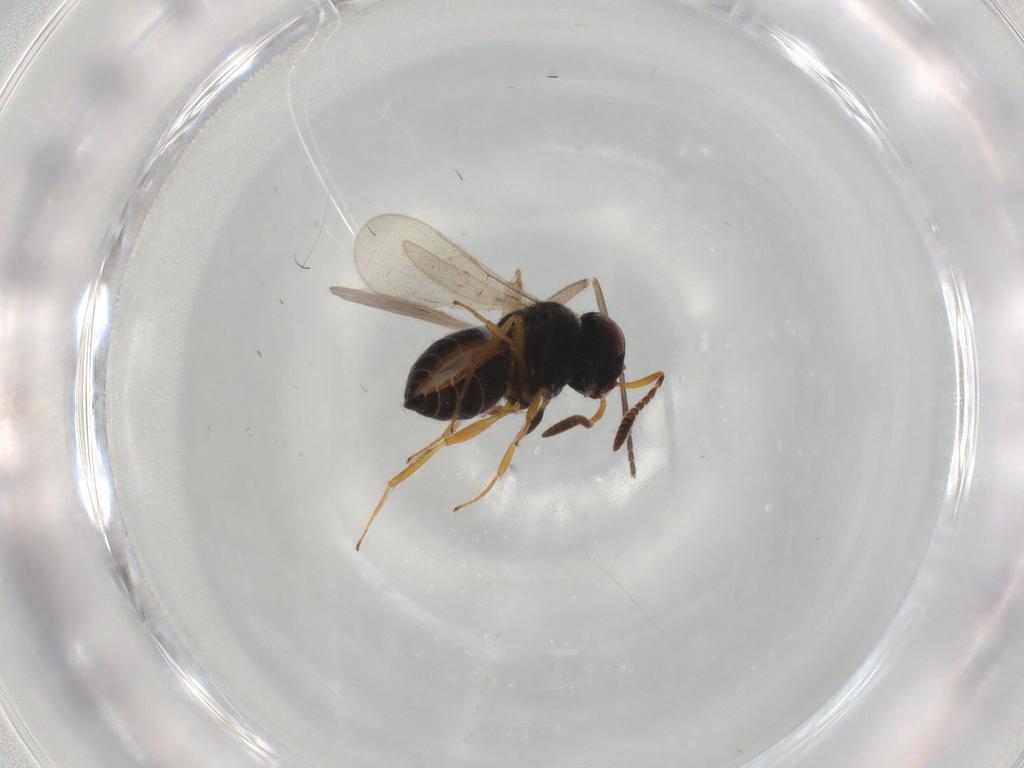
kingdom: Animalia
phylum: Arthropoda
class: Insecta
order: Hymenoptera
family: Scelionidae
